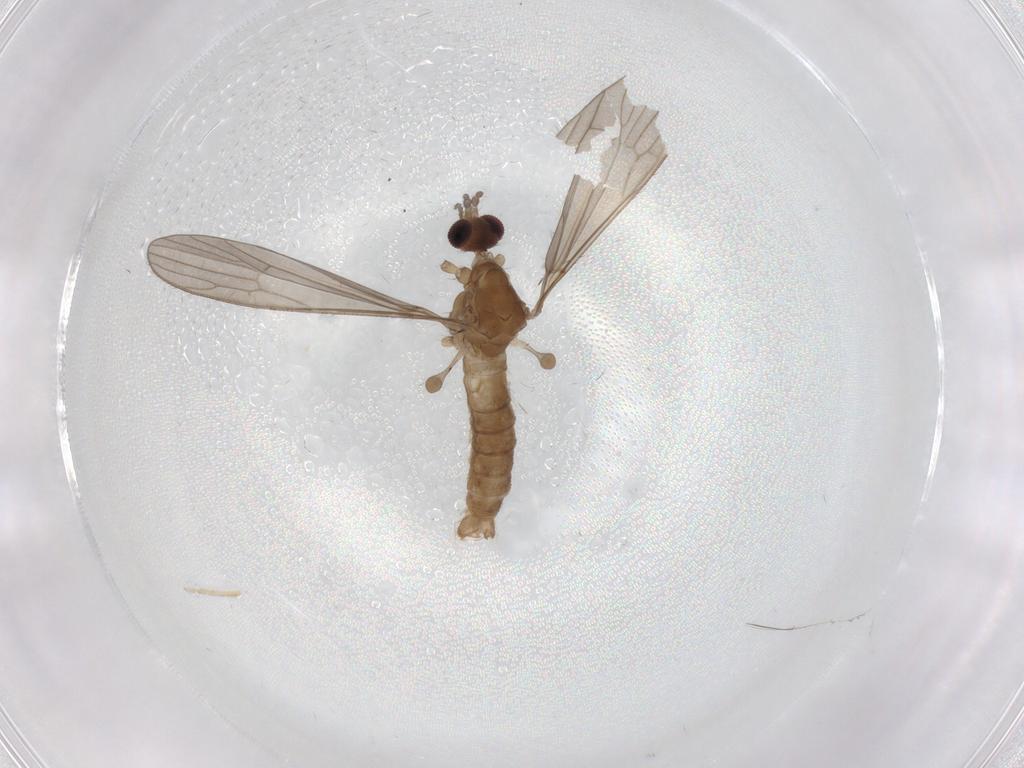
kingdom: Animalia
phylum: Arthropoda
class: Insecta
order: Diptera
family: Limoniidae
